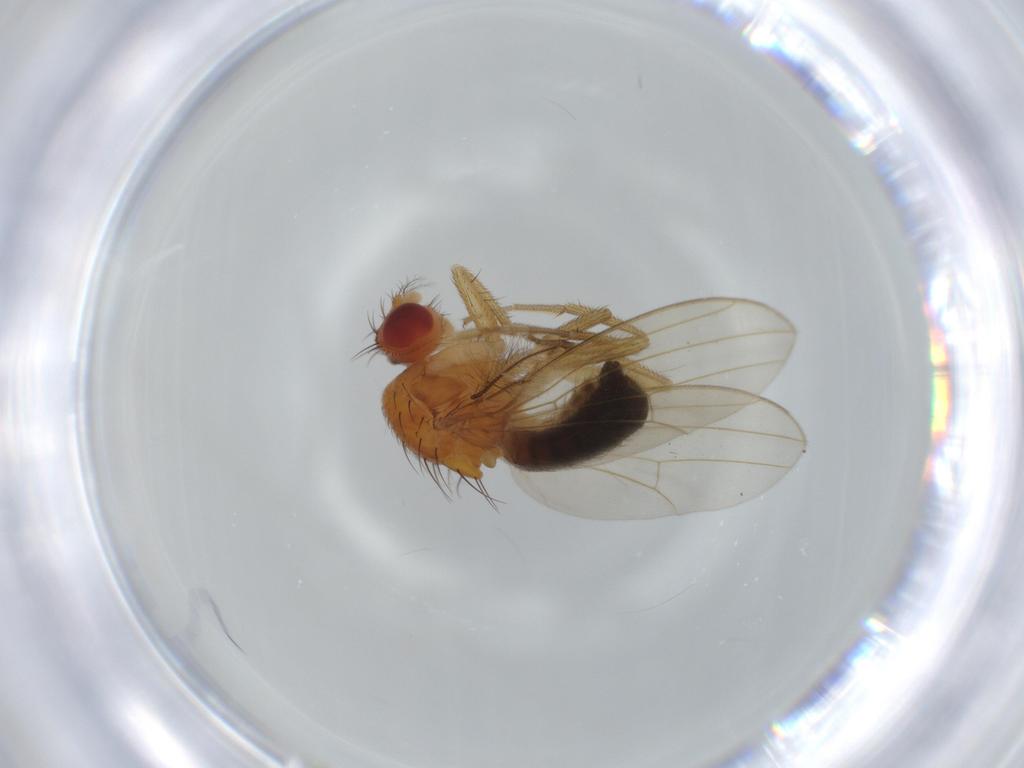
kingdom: Animalia
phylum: Arthropoda
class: Insecta
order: Diptera
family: Drosophilidae
